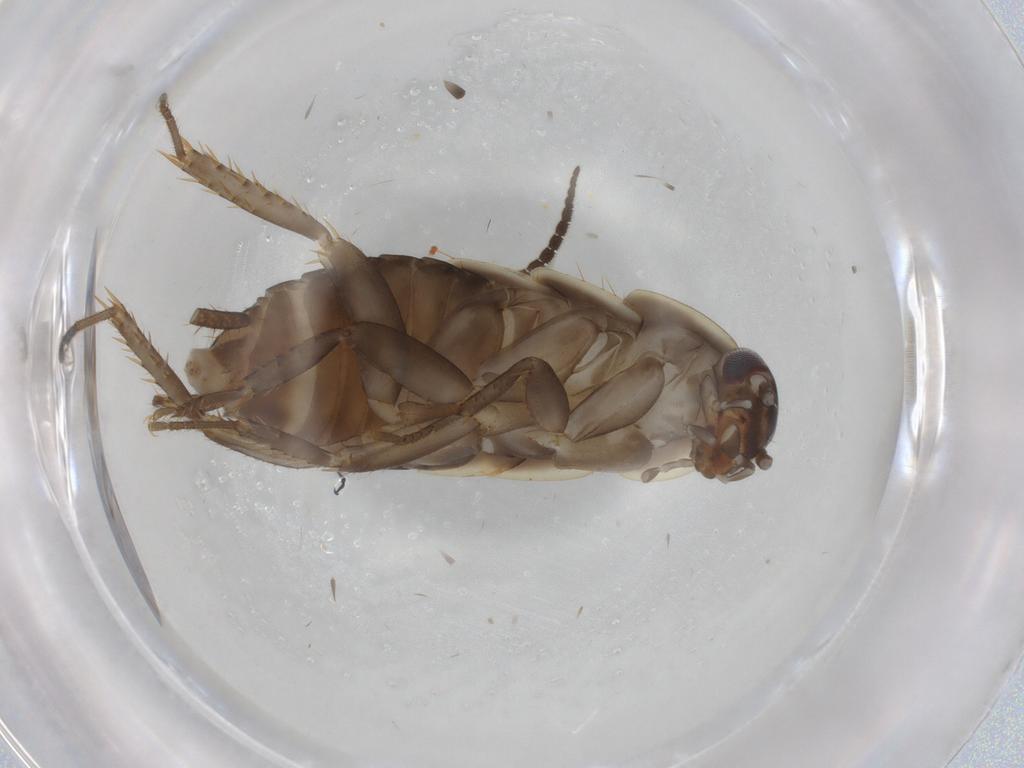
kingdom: Animalia
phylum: Arthropoda
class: Insecta
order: Blattodea
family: Ectobiidae
